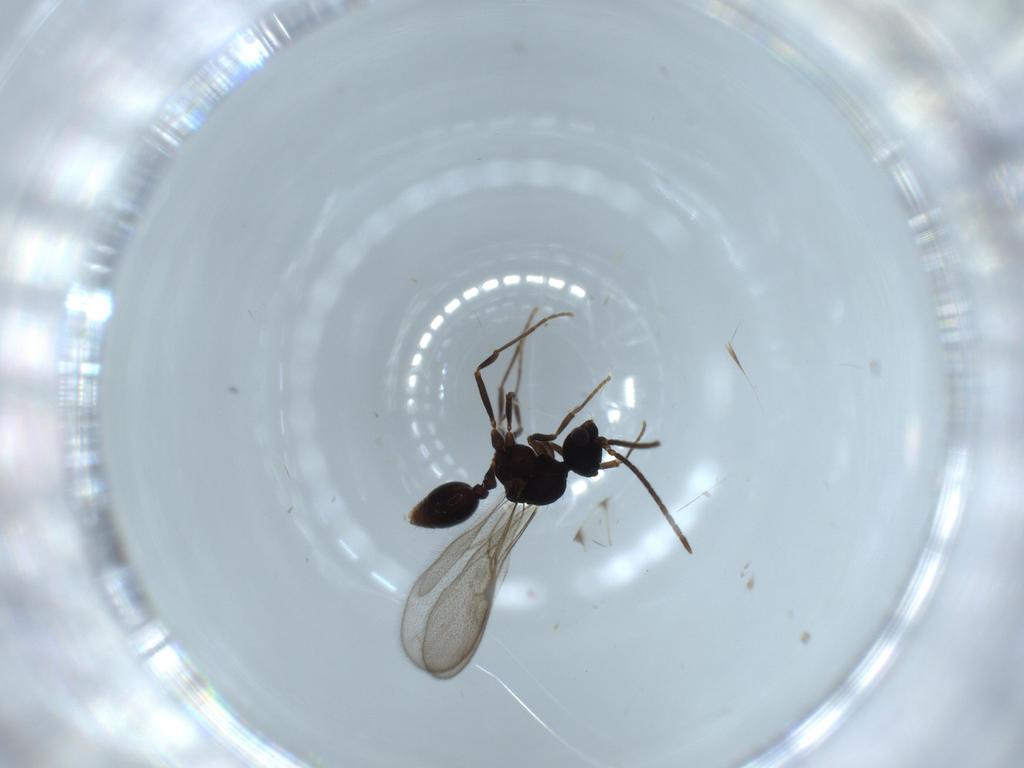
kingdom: Animalia
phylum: Arthropoda
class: Insecta
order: Hymenoptera
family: Formicidae
